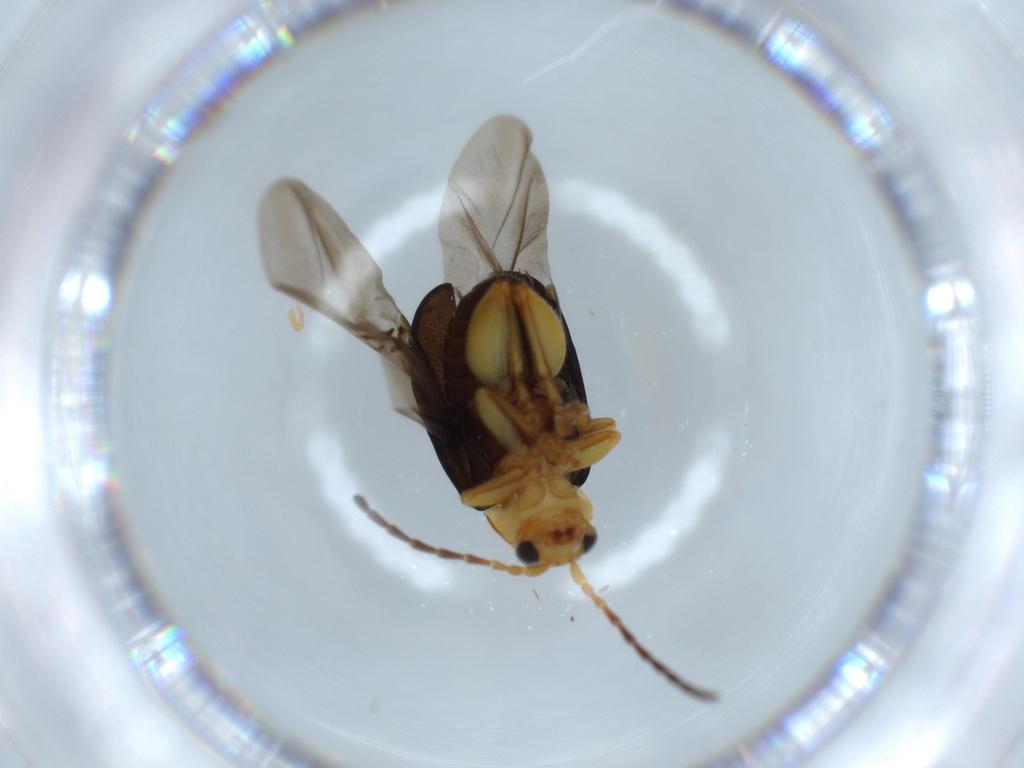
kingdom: Animalia
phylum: Arthropoda
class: Insecta
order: Coleoptera
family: Chrysomelidae
